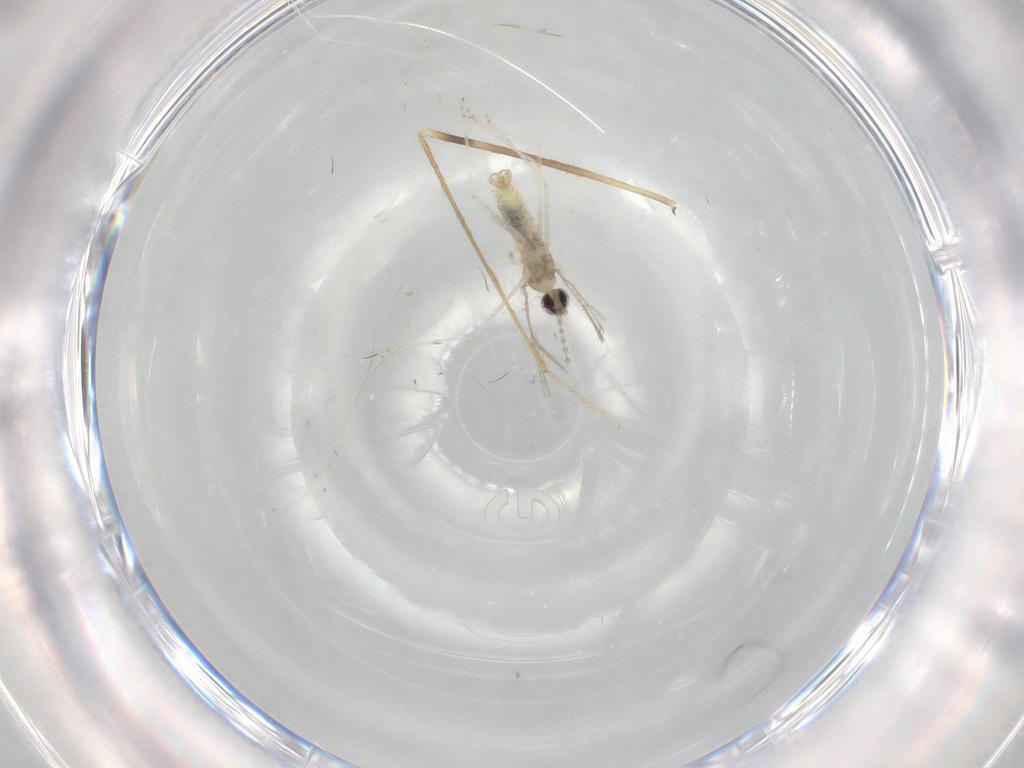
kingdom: Animalia
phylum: Arthropoda
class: Insecta
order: Diptera
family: Cecidomyiidae
